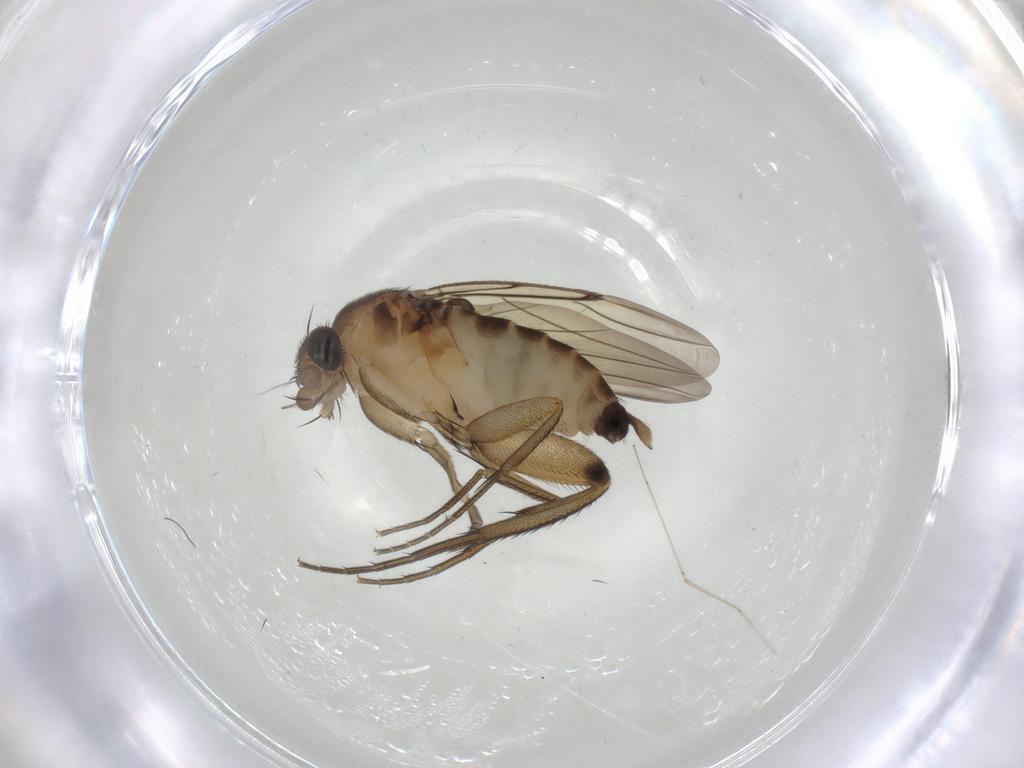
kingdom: Animalia
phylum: Arthropoda
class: Insecta
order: Diptera
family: Phoridae
